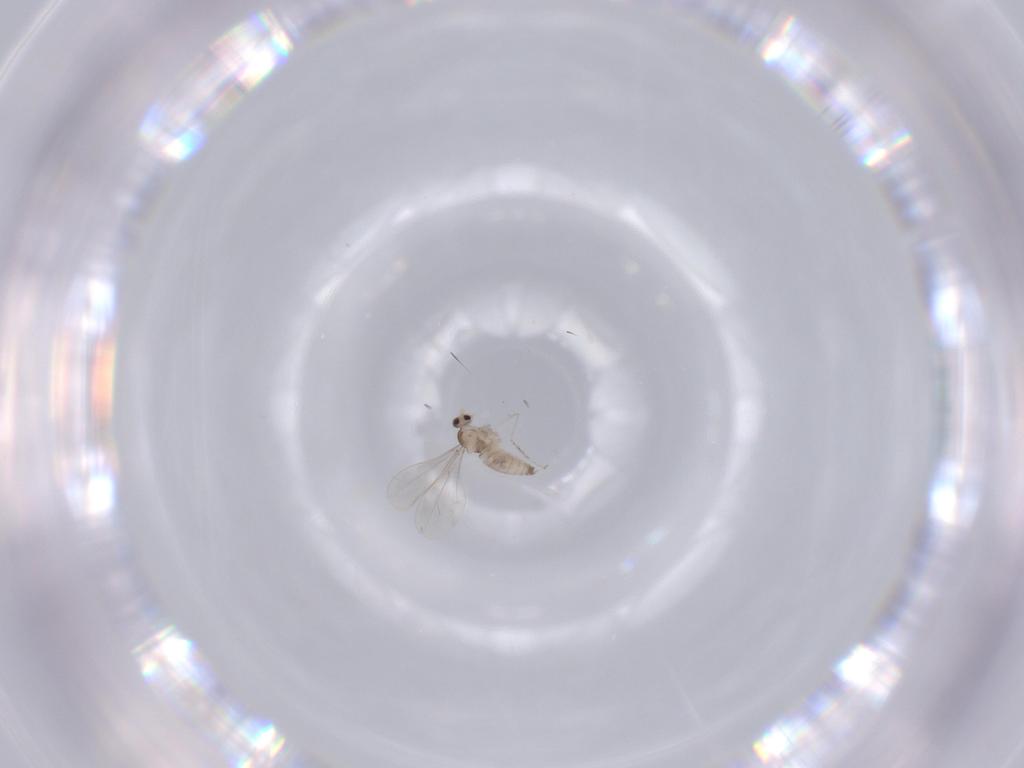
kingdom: Animalia
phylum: Arthropoda
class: Insecta
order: Diptera
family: Cecidomyiidae
